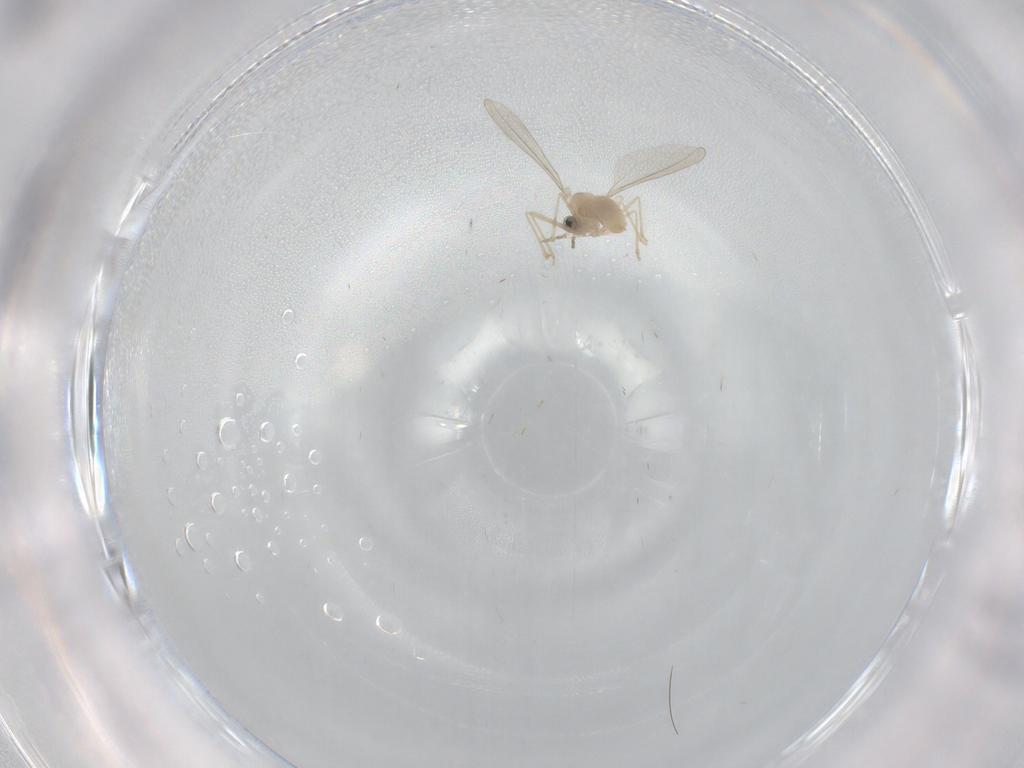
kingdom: Animalia
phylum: Arthropoda
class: Insecta
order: Diptera
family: Cecidomyiidae
